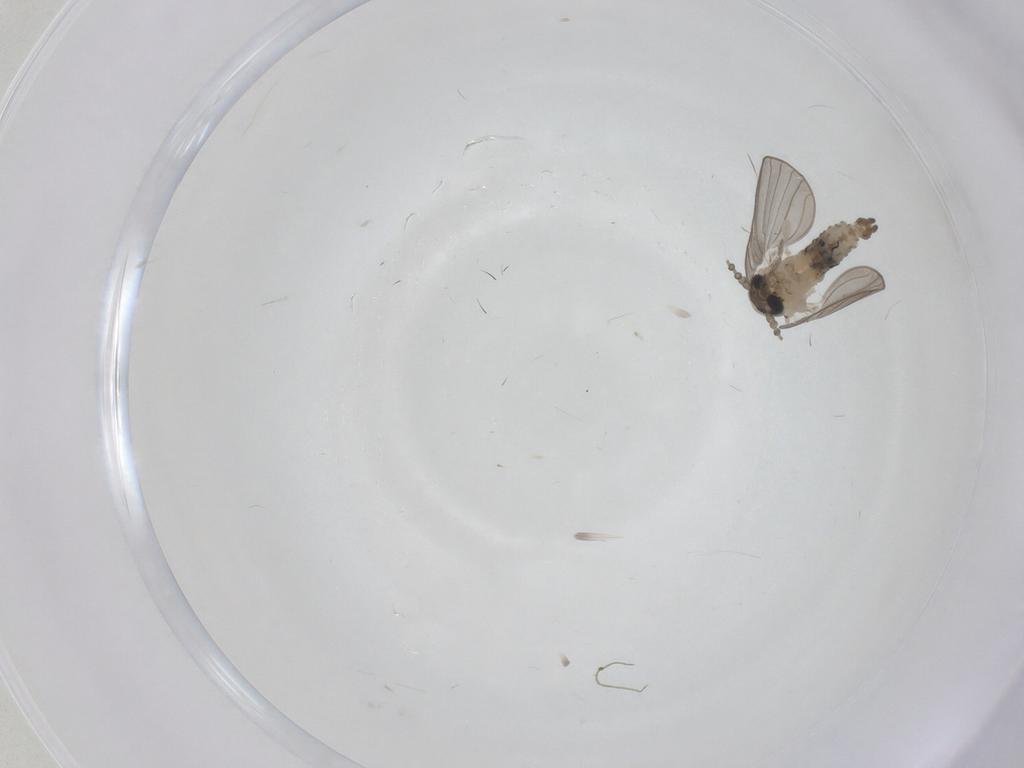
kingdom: Animalia
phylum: Arthropoda
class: Insecta
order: Diptera
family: Psychodidae
